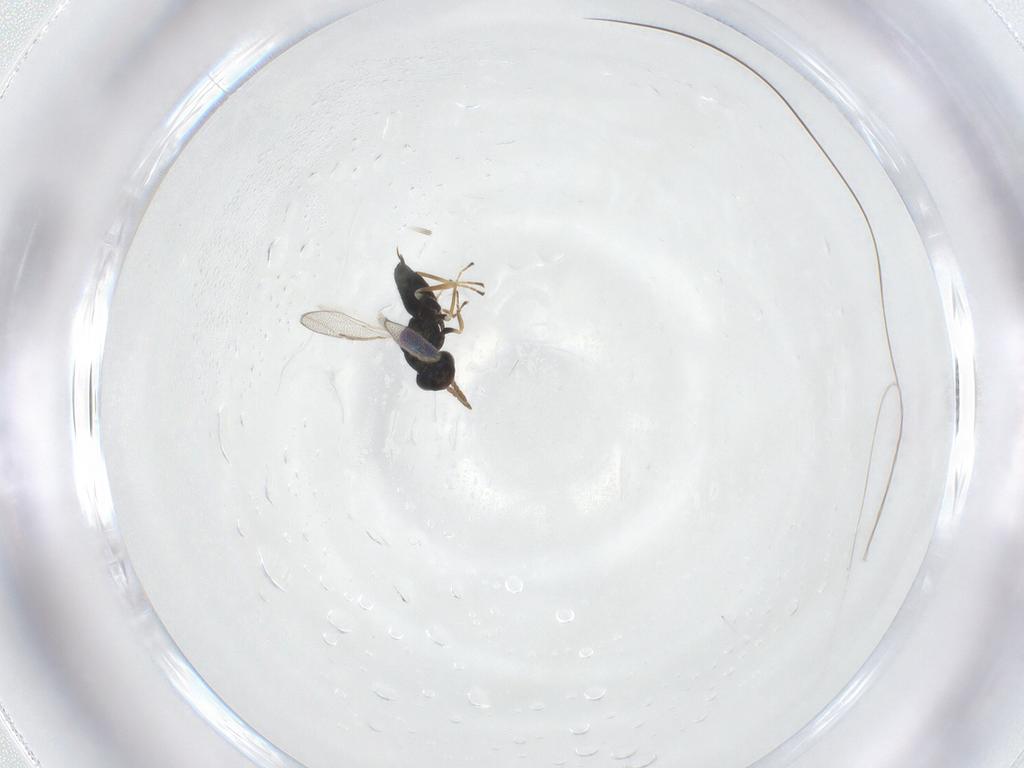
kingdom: Animalia
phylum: Arthropoda
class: Insecta
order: Hymenoptera
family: Eulophidae
